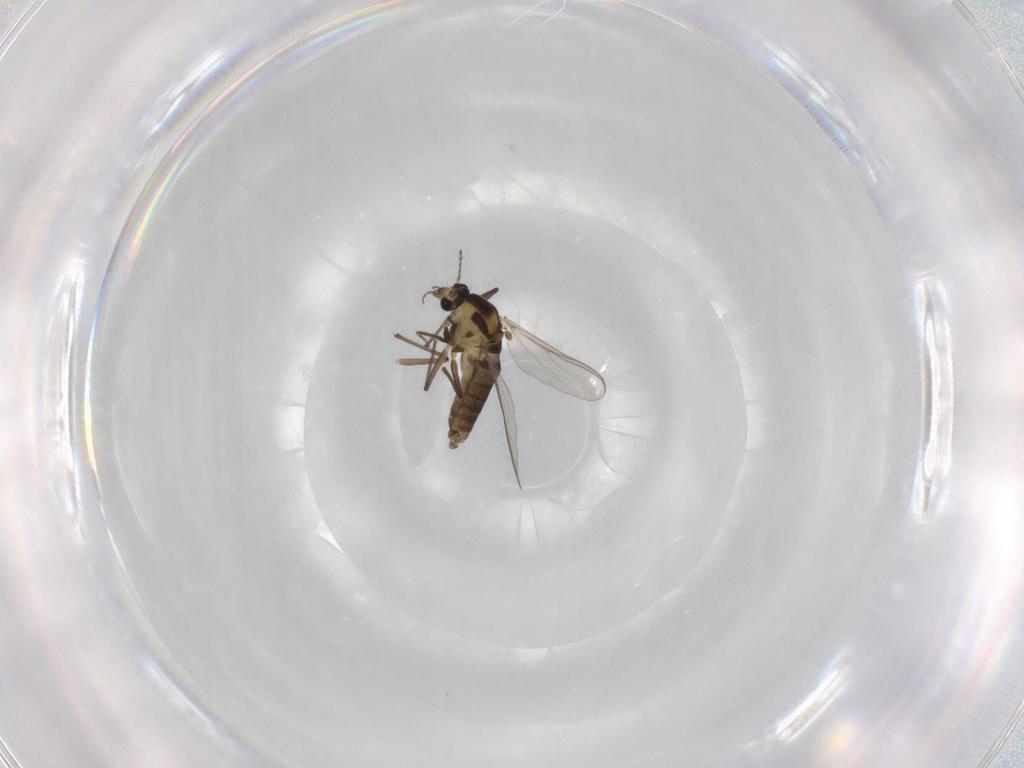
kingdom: Animalia
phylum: Arthropoda
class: Insecta
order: Diptera
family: Chironomidae
